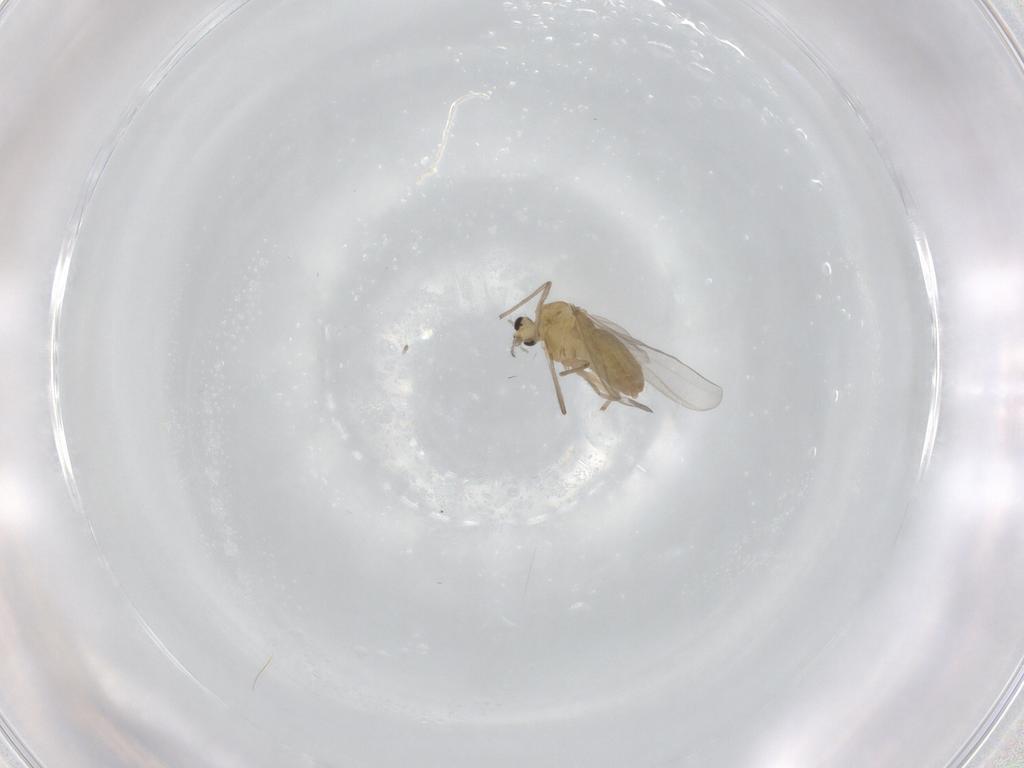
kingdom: Animalia
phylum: Arthropoda
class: Insecta
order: Diptera
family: Chironomidae
